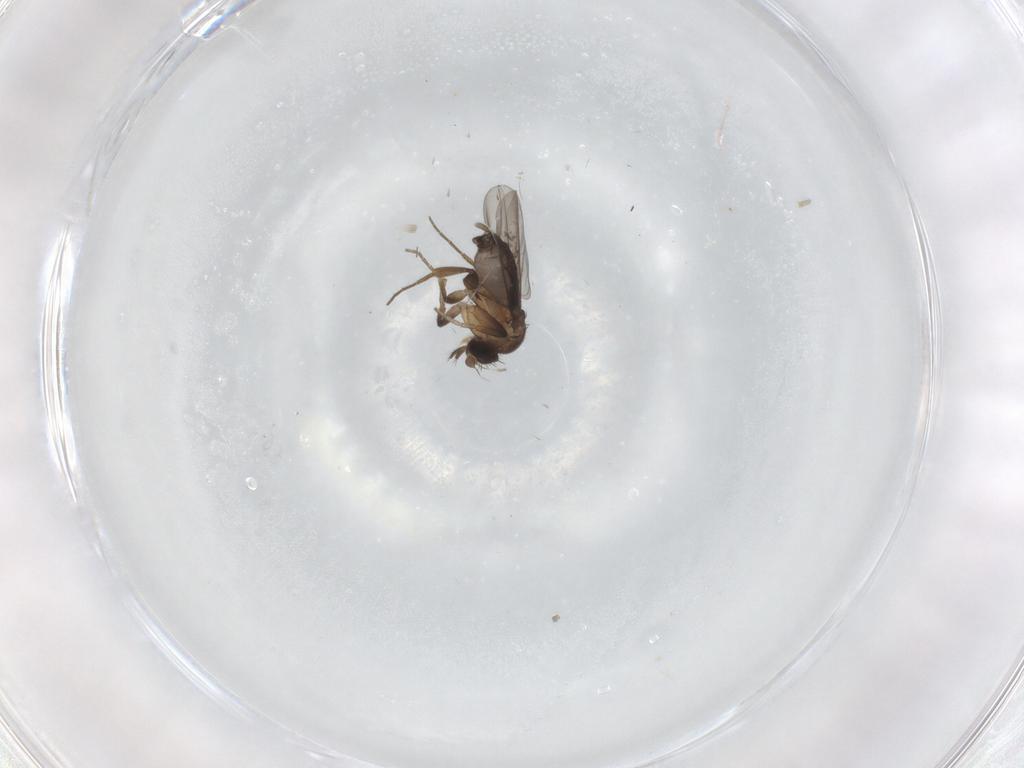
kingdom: Animalia
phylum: Arthropoda
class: Insecta
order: Diptera
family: Phoridae
